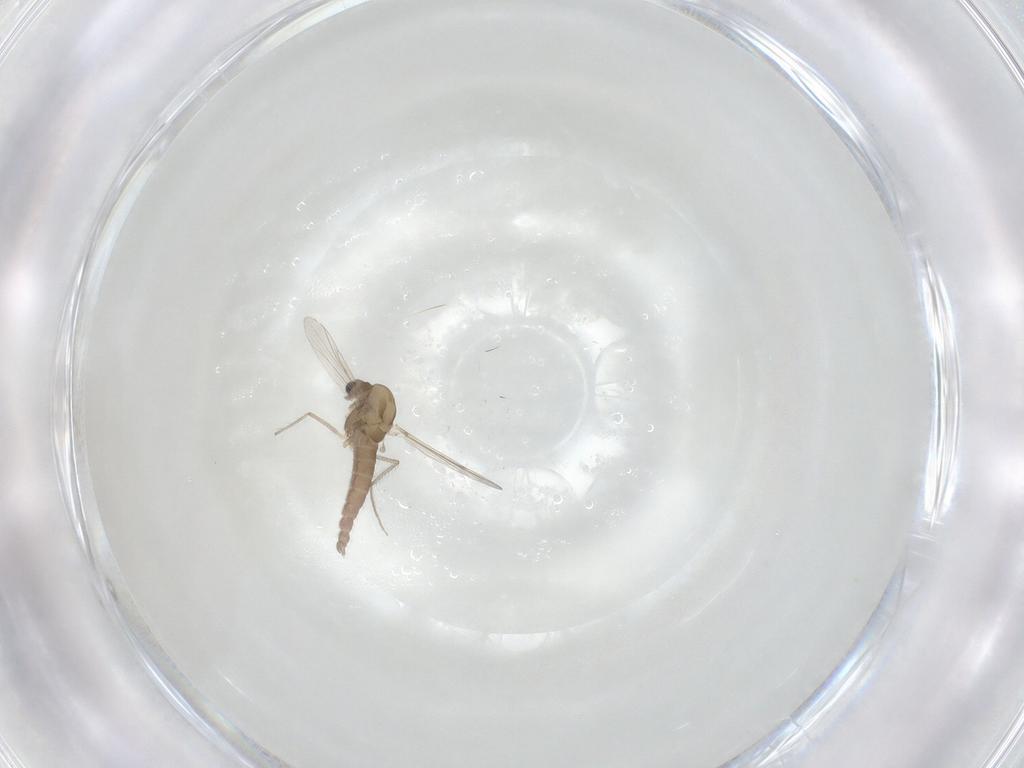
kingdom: Animalia
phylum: Arthropoda
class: Insecta
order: Diptera
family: Chironomidae
